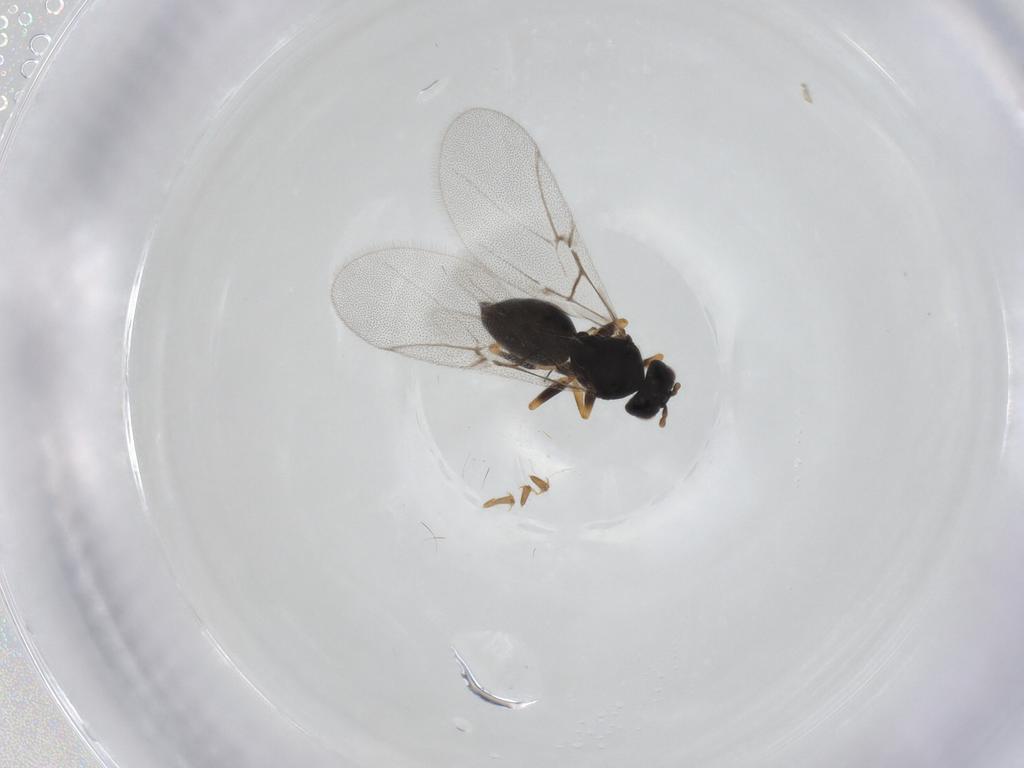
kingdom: Animalia
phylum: Arthropoda
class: Insecta
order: Hymenoptera
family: Cynipidae
